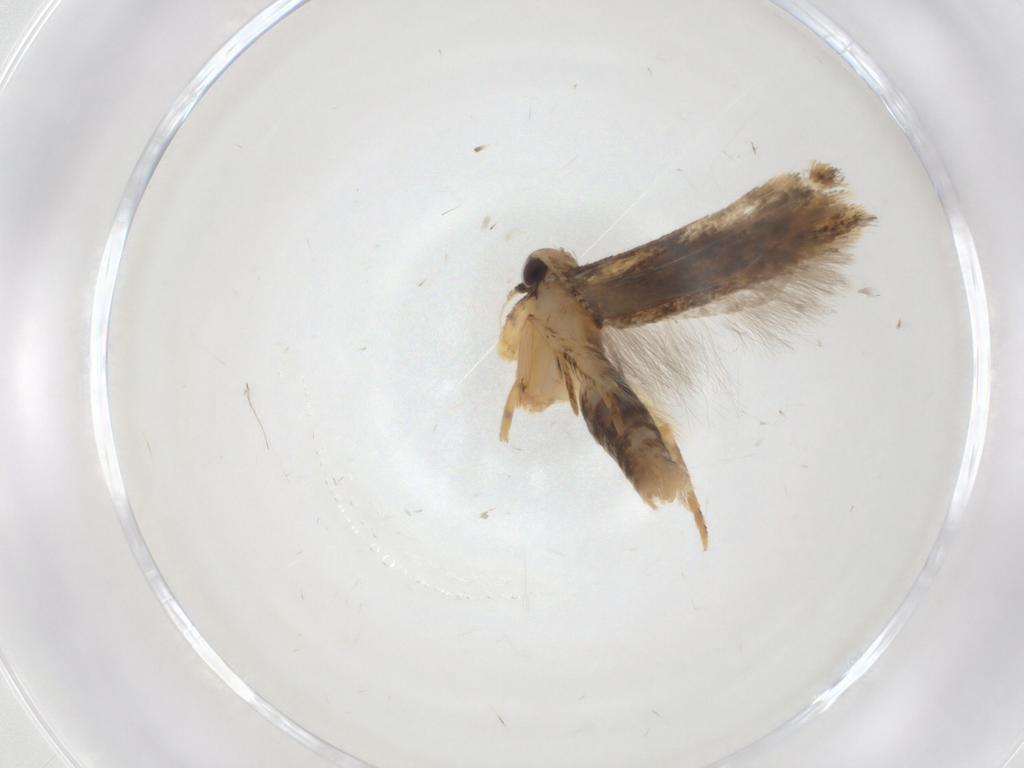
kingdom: Animalia
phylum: Arthropoda
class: Insecta
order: Lepidoptera
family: Gelechiidae
